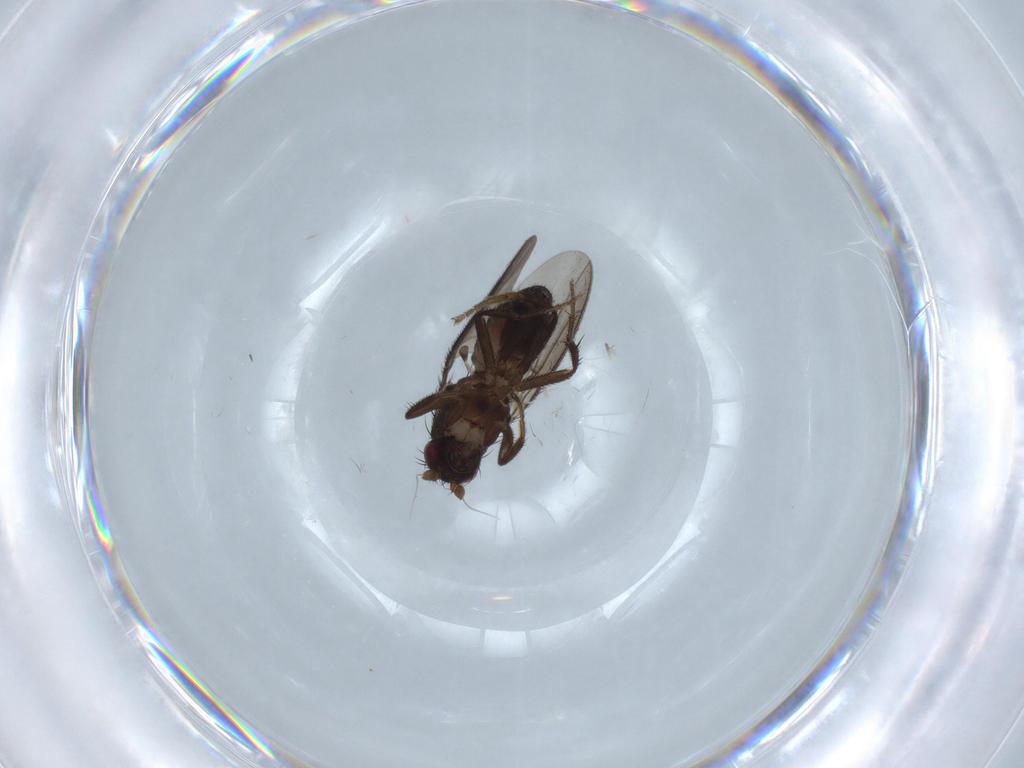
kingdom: Animalia
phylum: Arthropoda
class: Insecta
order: Diptera
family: Sphaeroceridae
